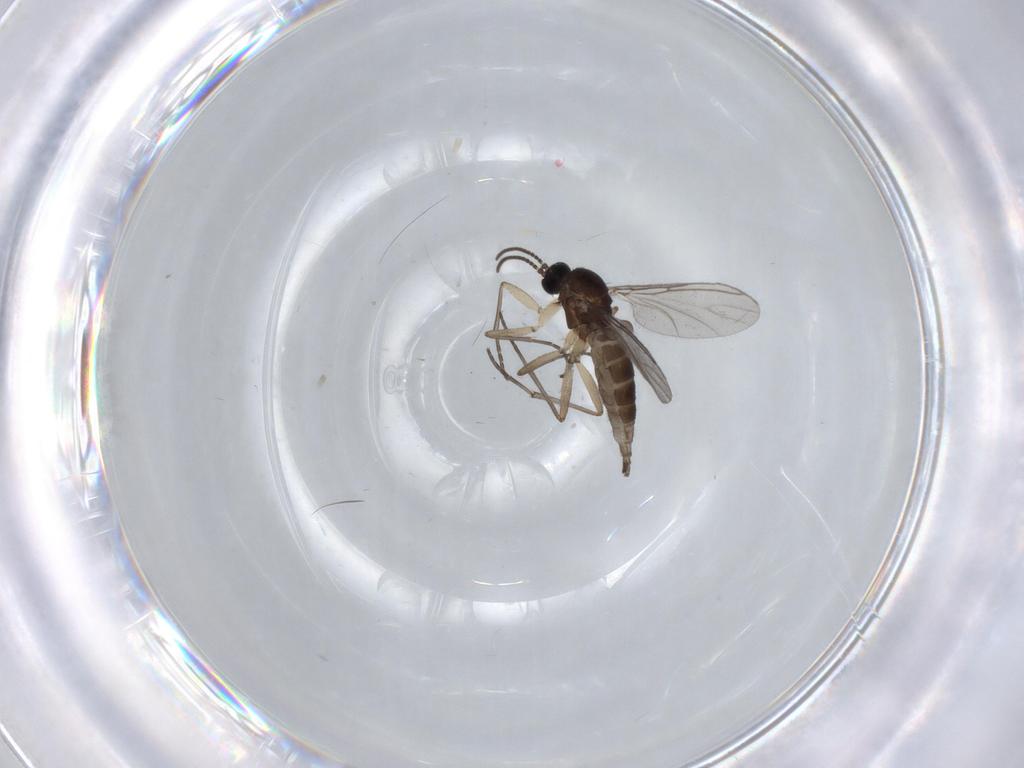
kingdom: Animalia
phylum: Arthropoda
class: Insecta
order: Diptera
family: Sciaridae
